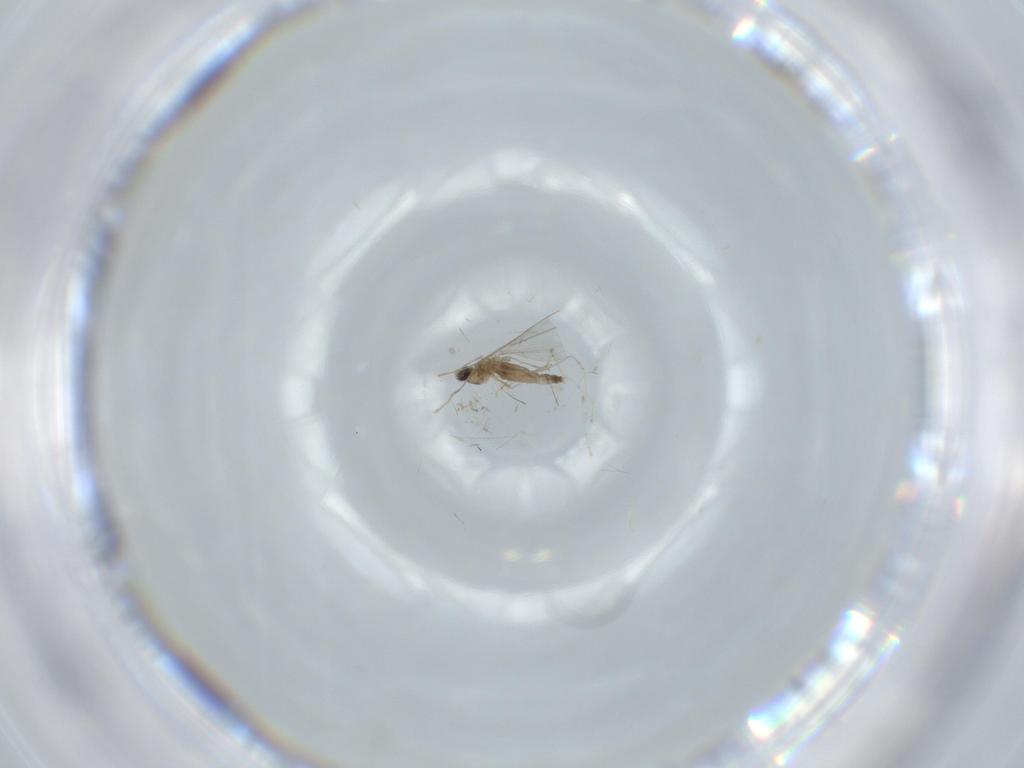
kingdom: Animalia
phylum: Arthropoda
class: Insecta
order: Diptera
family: Cecidomyiidae
